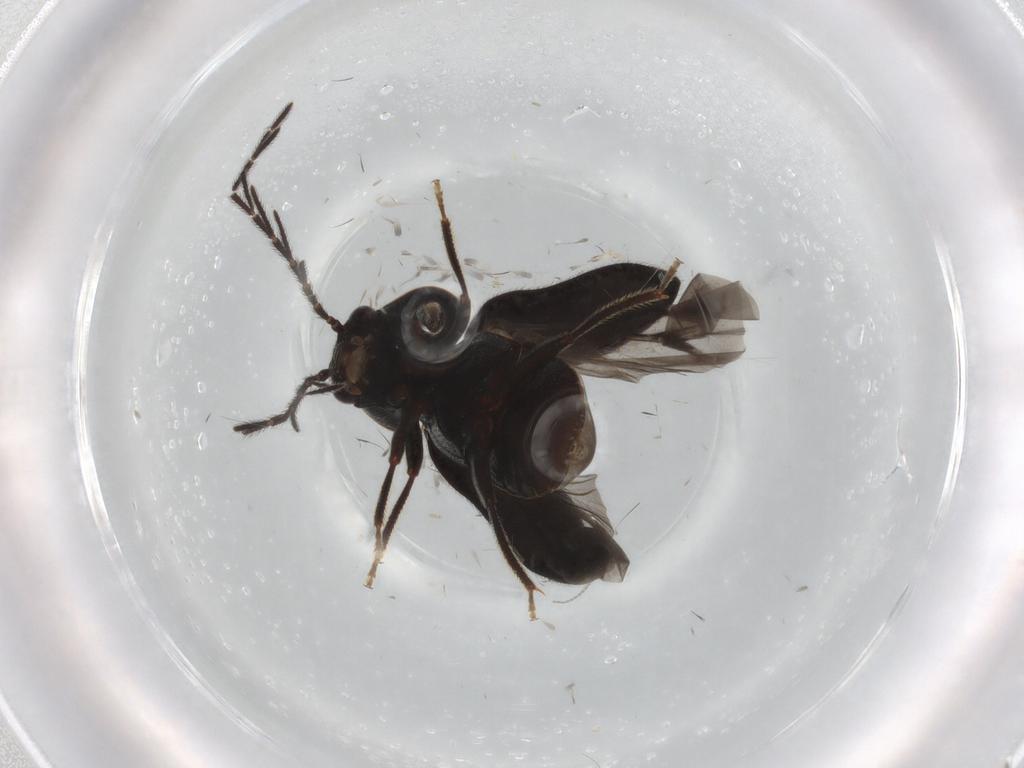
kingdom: Animalia
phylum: Arthropoda
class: Insecta
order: Coleoptera
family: Ptilodactylidae
